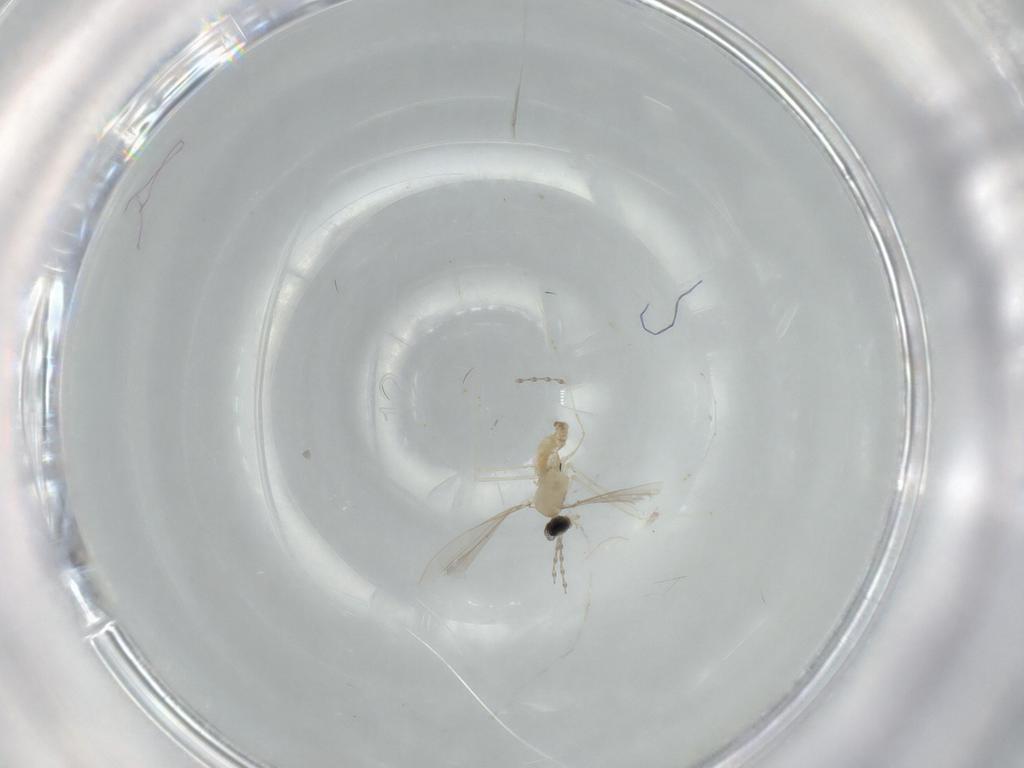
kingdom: Animalia
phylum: Arthropoda
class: Insecta
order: Diptera
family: Cecidomyiidae
